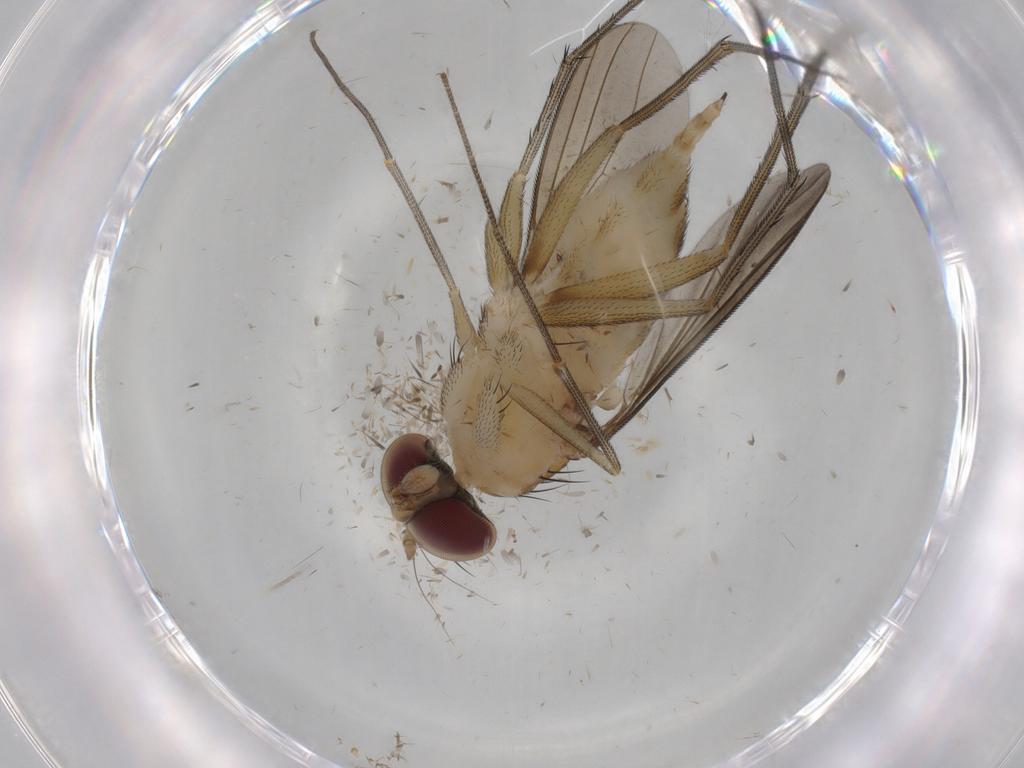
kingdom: Animalia
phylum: Arthropoda
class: Insecta
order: Diptera
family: Dolichopodidae
